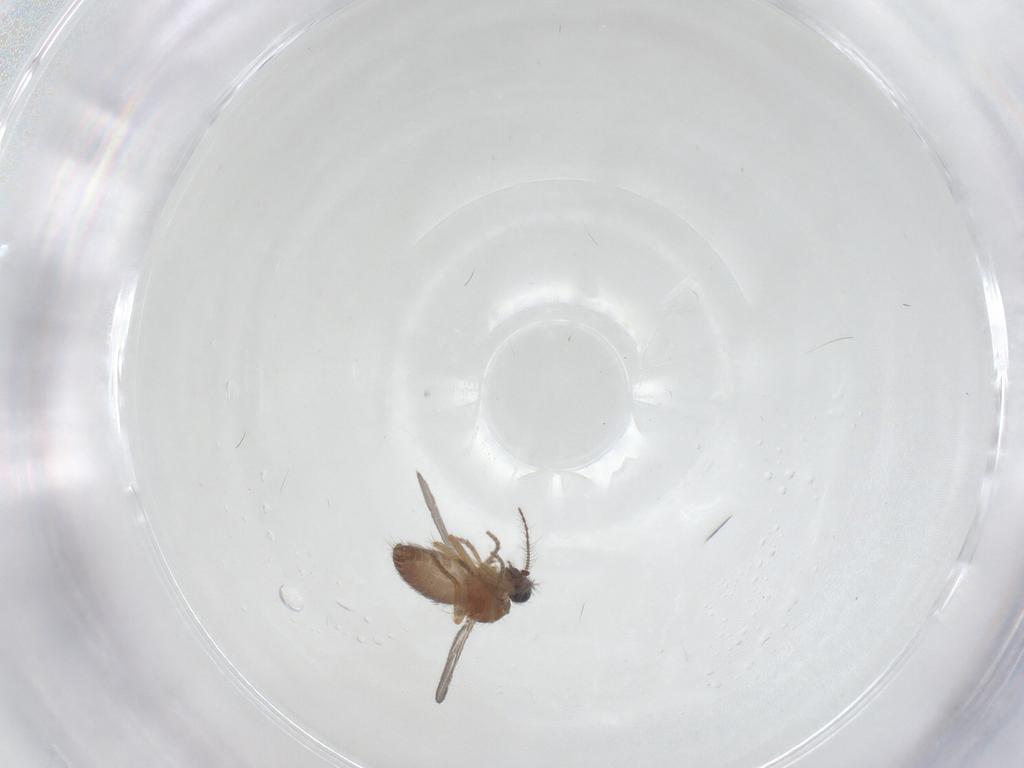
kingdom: Animalia
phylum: Arthropoda
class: Insecta
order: Diptera
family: Ceratopogonidae
